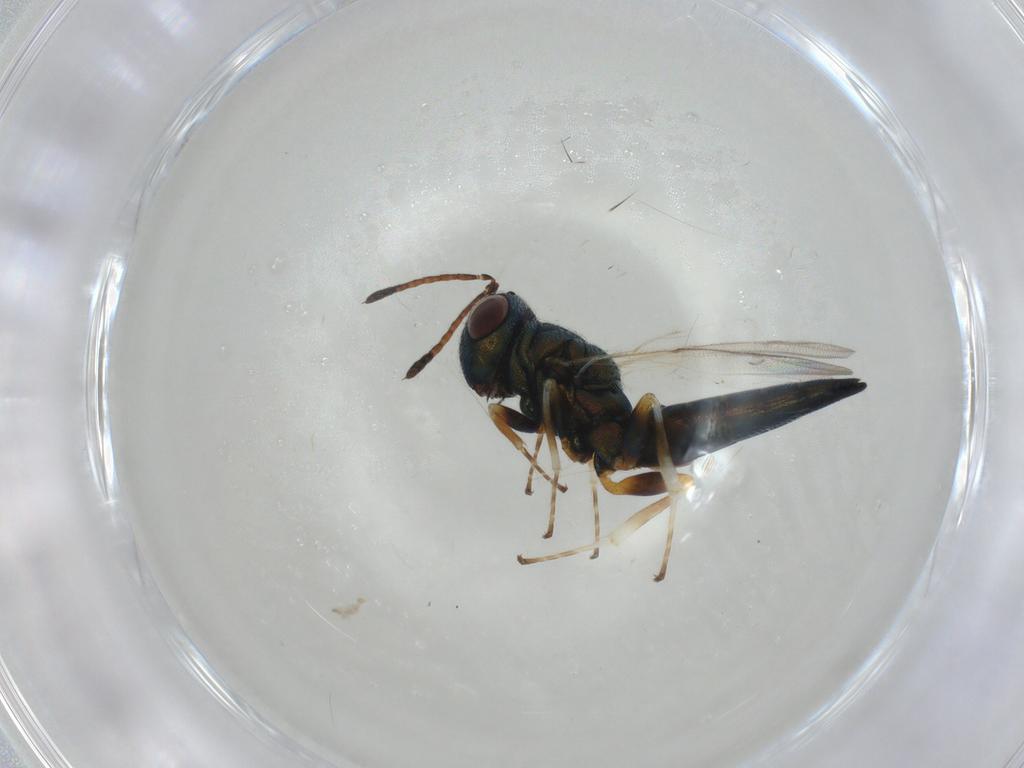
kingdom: Animalia
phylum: Arthropoda
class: Insecta
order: Hymenoptera
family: Pteromalidae
